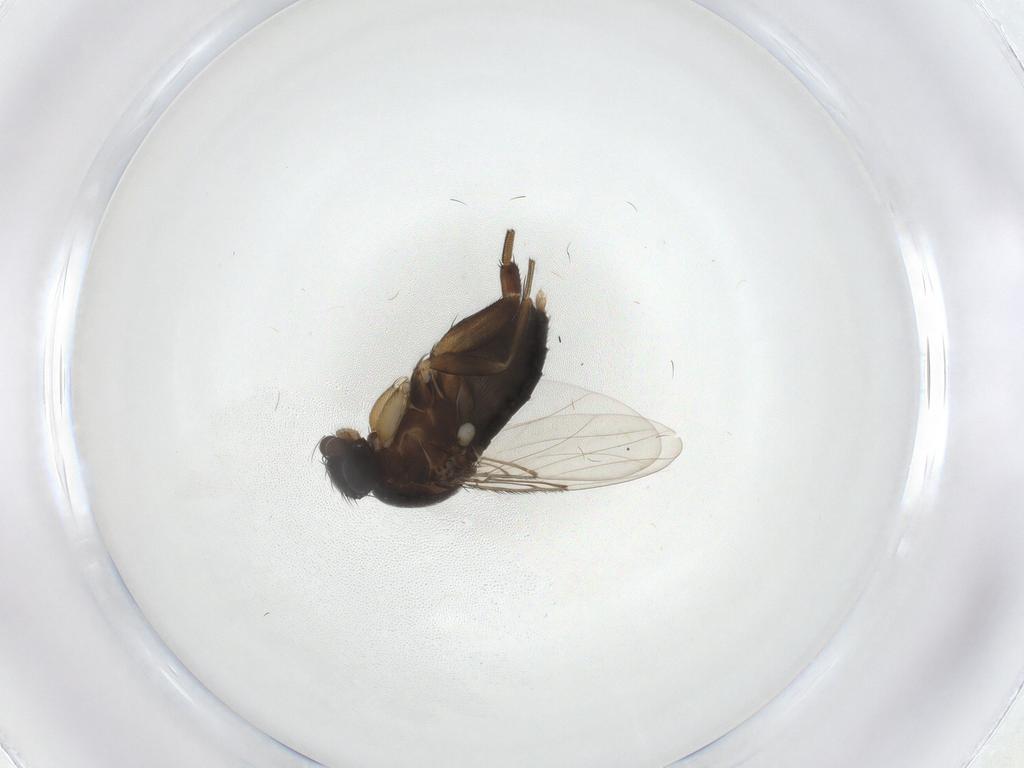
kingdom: Animalia
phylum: Arthropoda
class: Insecta
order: Diptera
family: Phoridae
